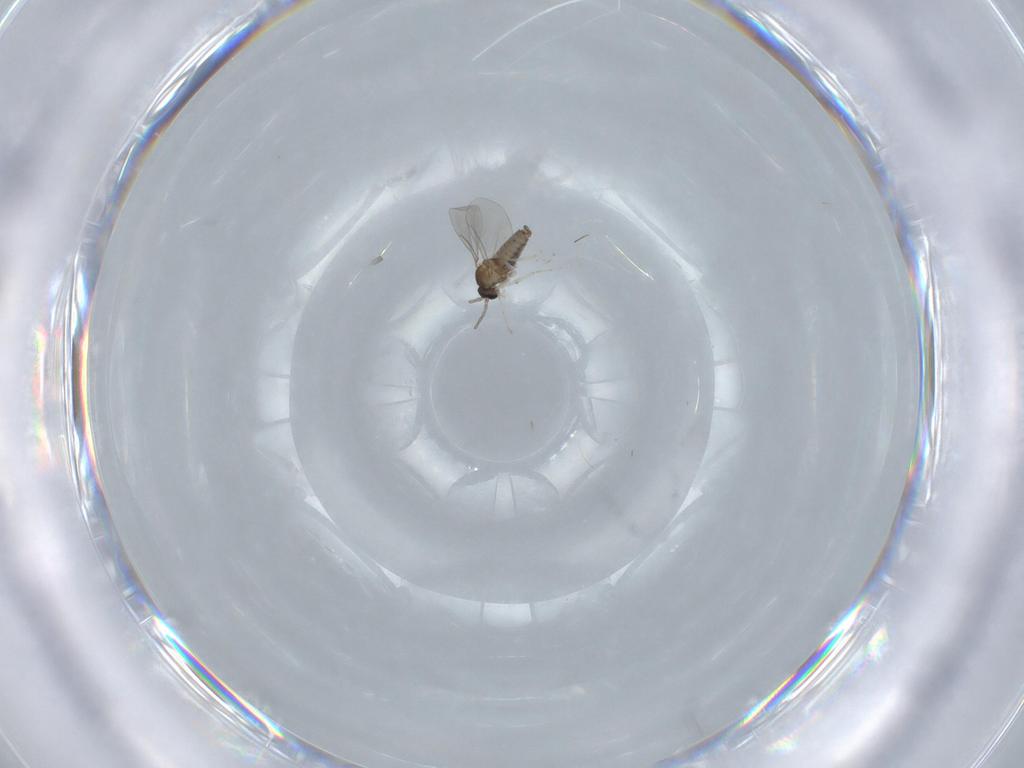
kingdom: Animalia
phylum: Arthropoda
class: Insecta
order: Diptera
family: Cecidomyiidae
